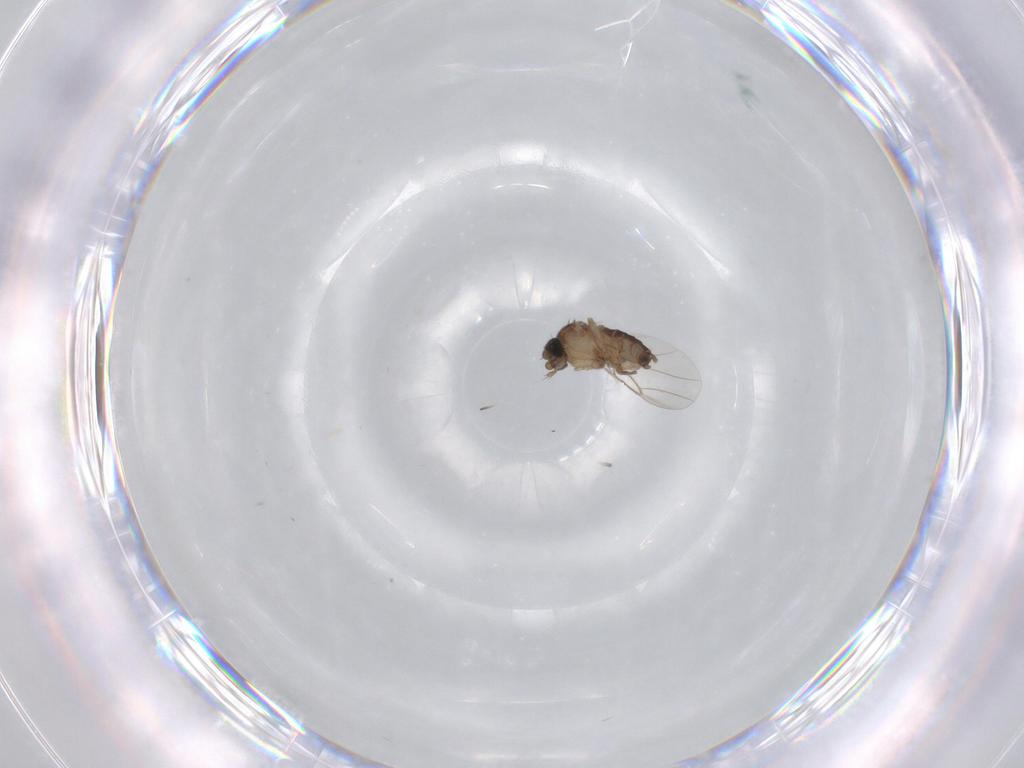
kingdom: Animalia
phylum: Arthropoda
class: Insecta
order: Diptera
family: Phoridae
